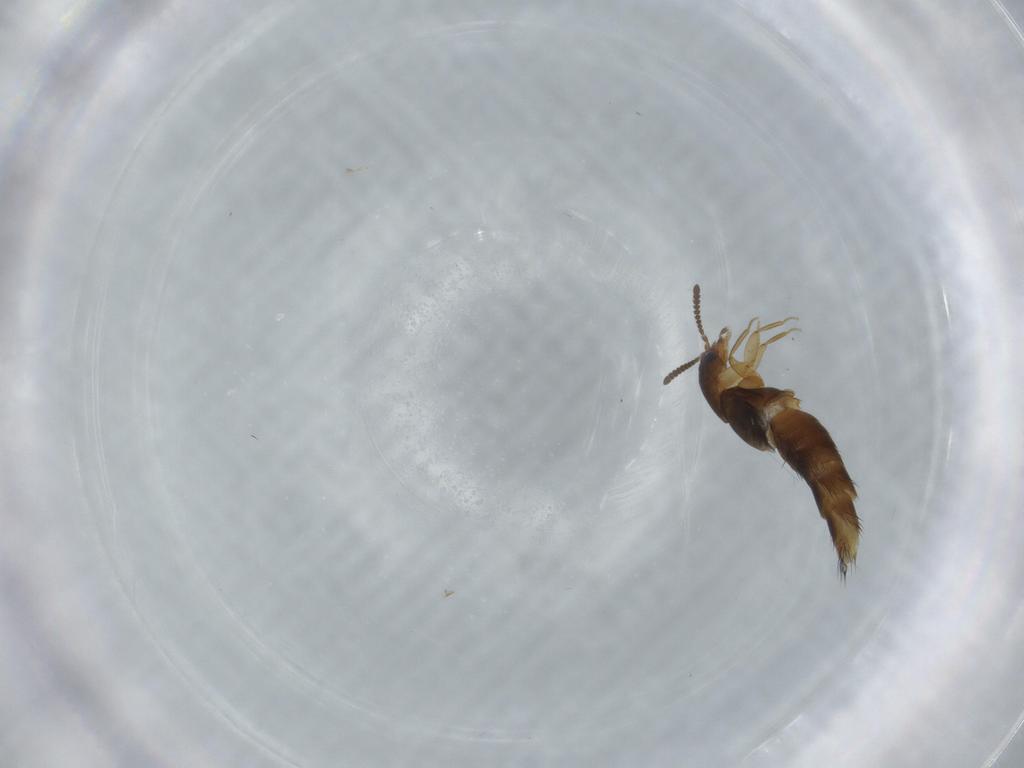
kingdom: Animalia
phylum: Arthropoda
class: Insecta
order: Coleoptera
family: Staphylinidae
